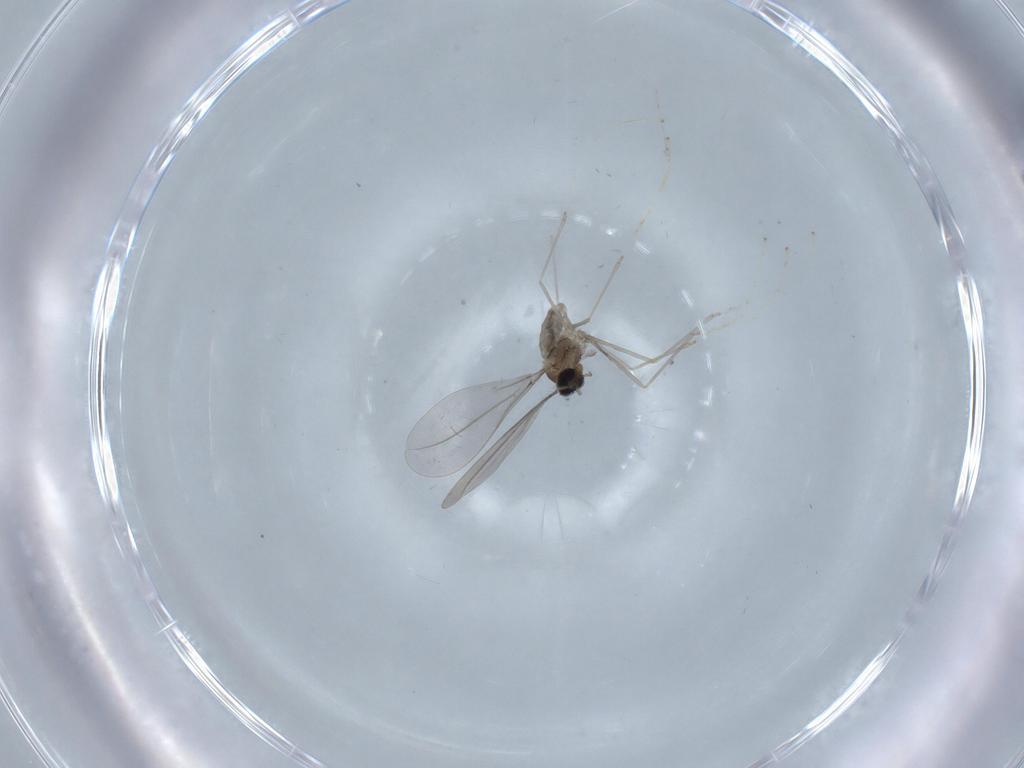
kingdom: Animalia
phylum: Arthropoda
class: Insecta
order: Diptera
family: Cecidomyiidae
